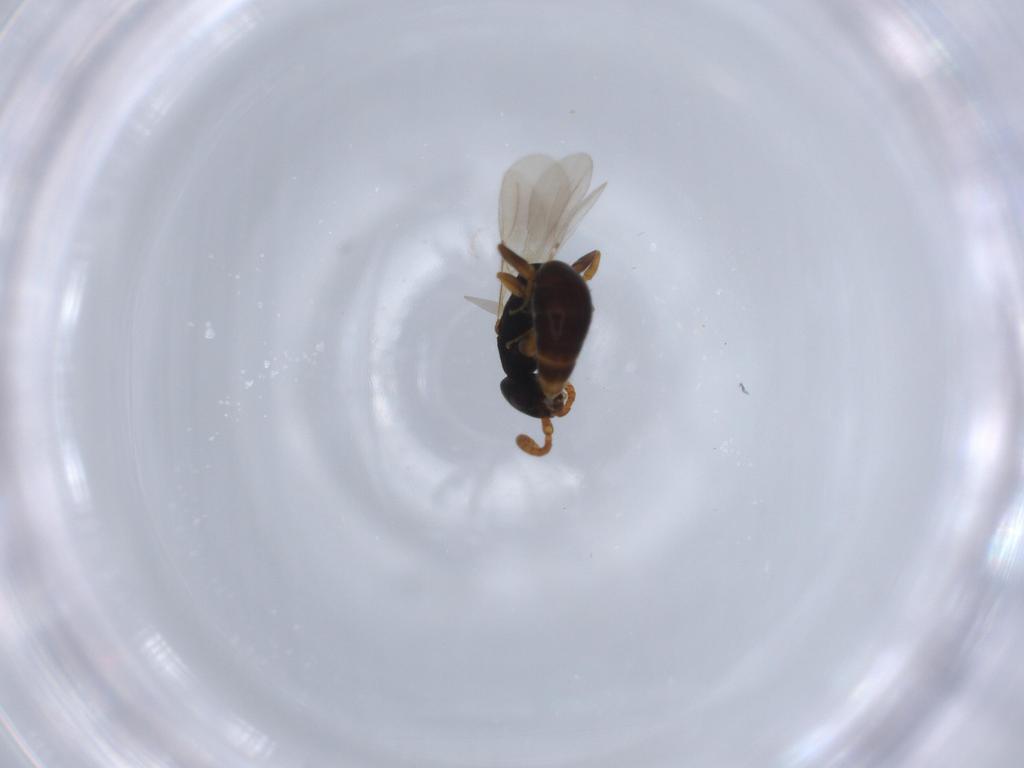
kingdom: Animalia
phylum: Arthropoda
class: Insecta
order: Hymenoptera
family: Bethylidae
